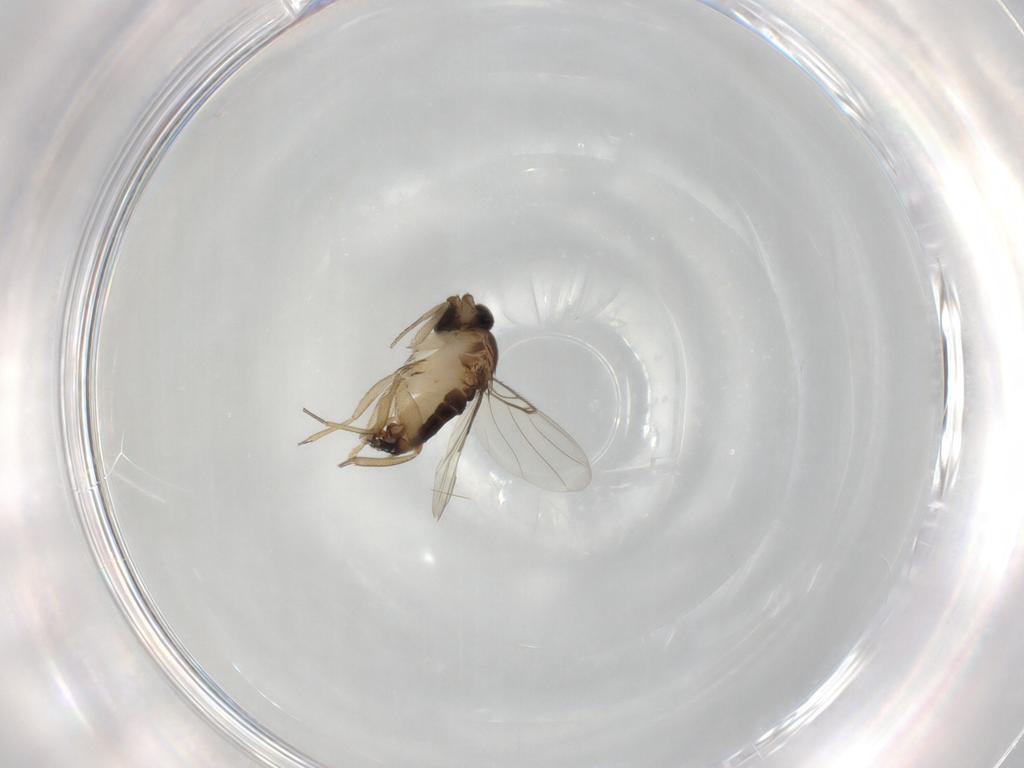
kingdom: Animalia
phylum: Arthropoda
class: Insecta
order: Diptera
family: Phoridae
